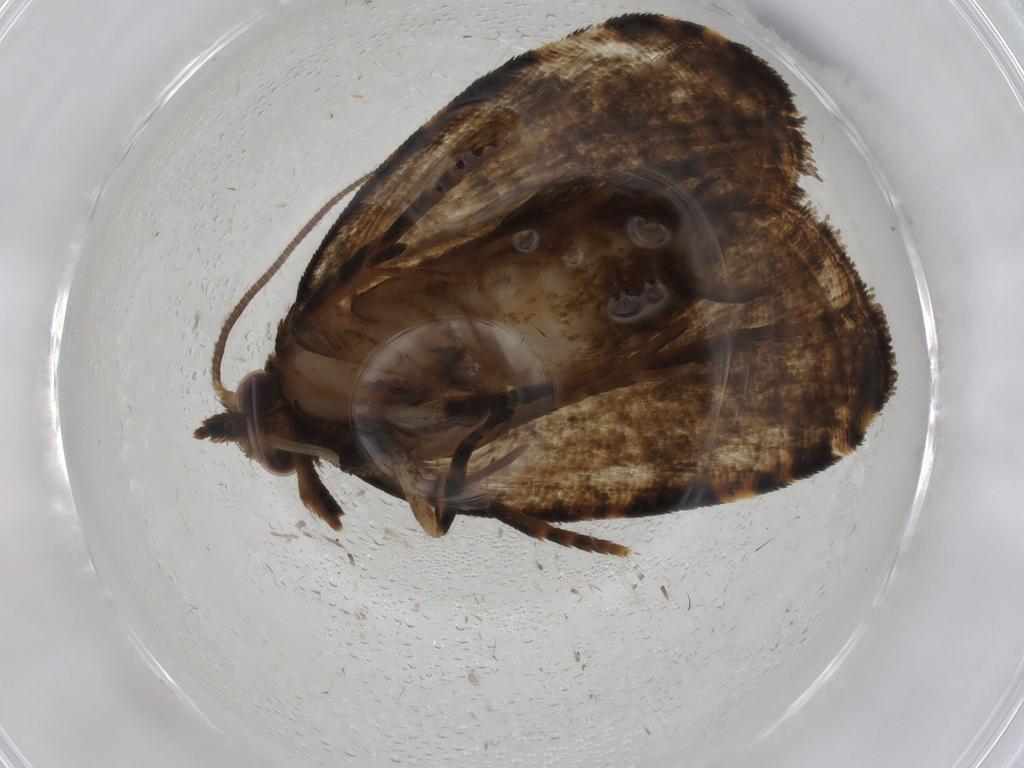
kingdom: Animalia
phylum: Arthropoda
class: Insecta
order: Lepidoptera
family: Tortricidae
